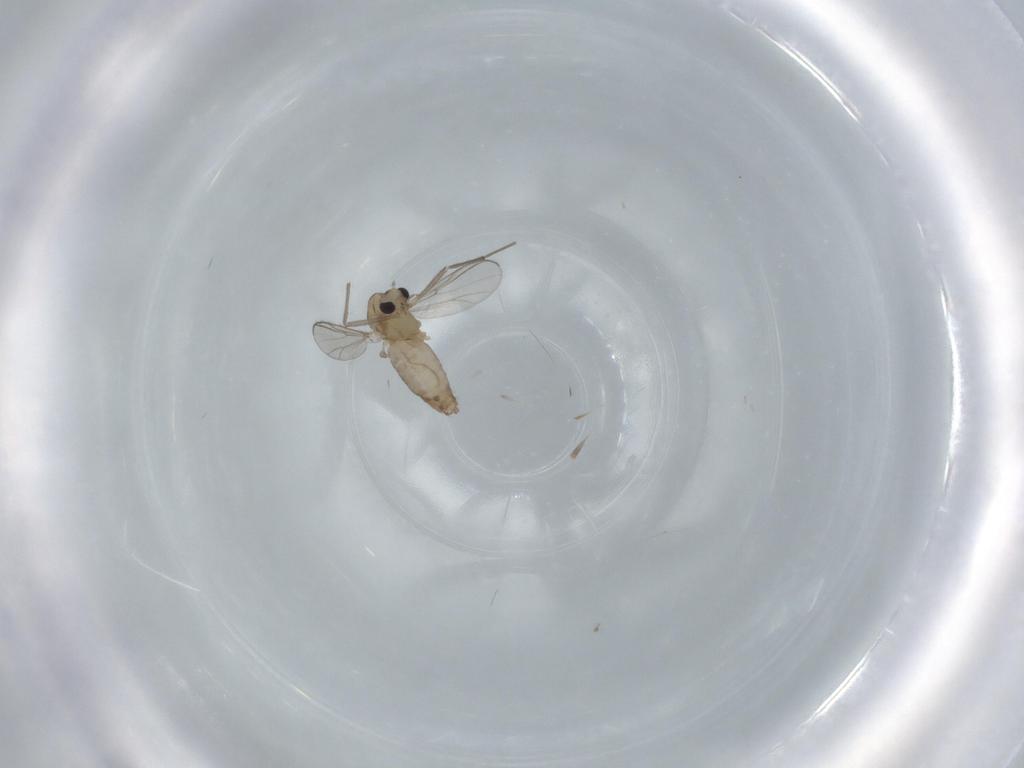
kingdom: Animalia
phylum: Arthropoda
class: Insecta
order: Diptera
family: Chironomidae
